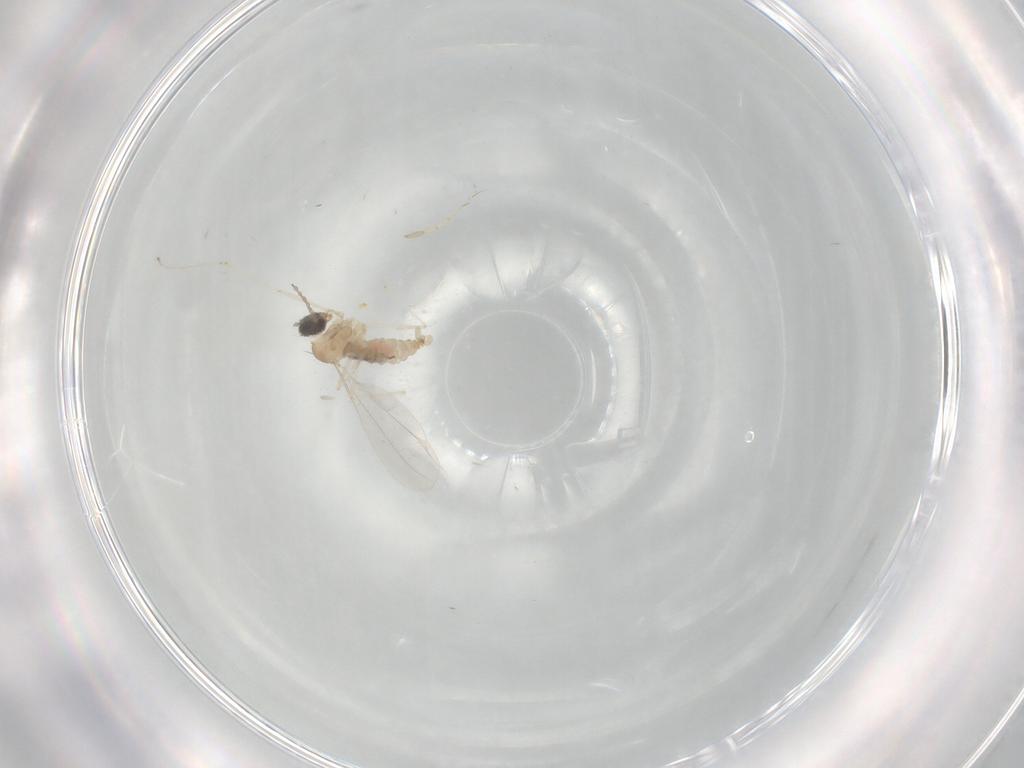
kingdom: Animalia
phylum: Arthropoda
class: Insecta
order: Diptera
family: Cecidomyiidae
